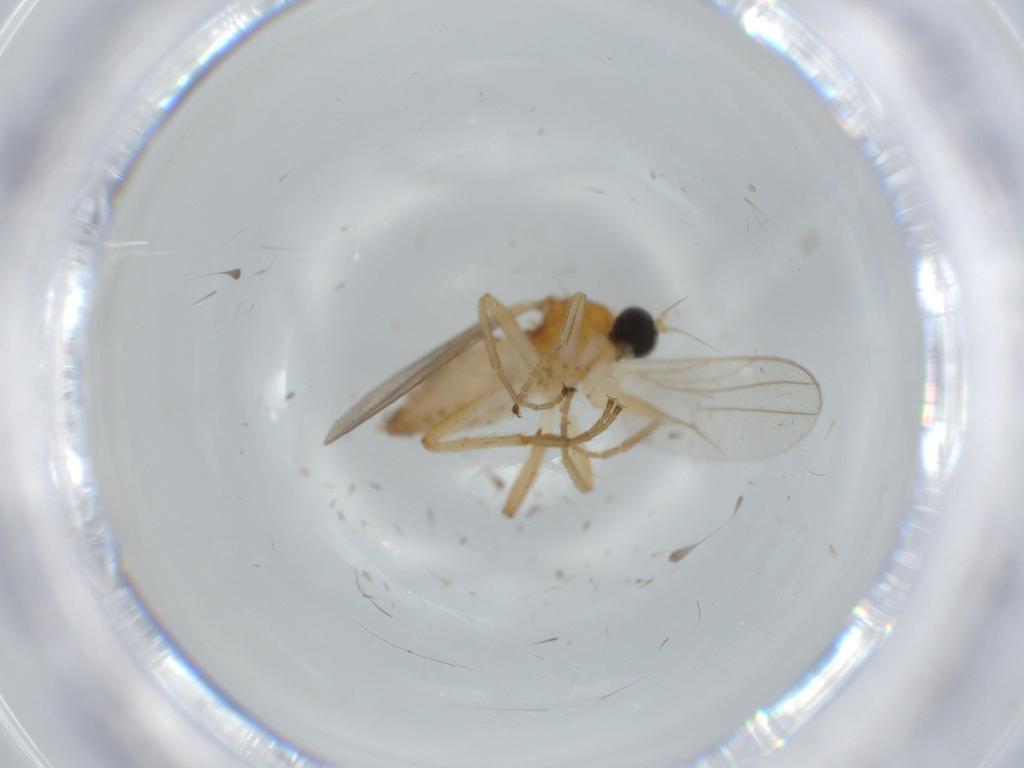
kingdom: Animalia
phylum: Arthropoda
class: Insecta
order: Diptera
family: Hybotidae
